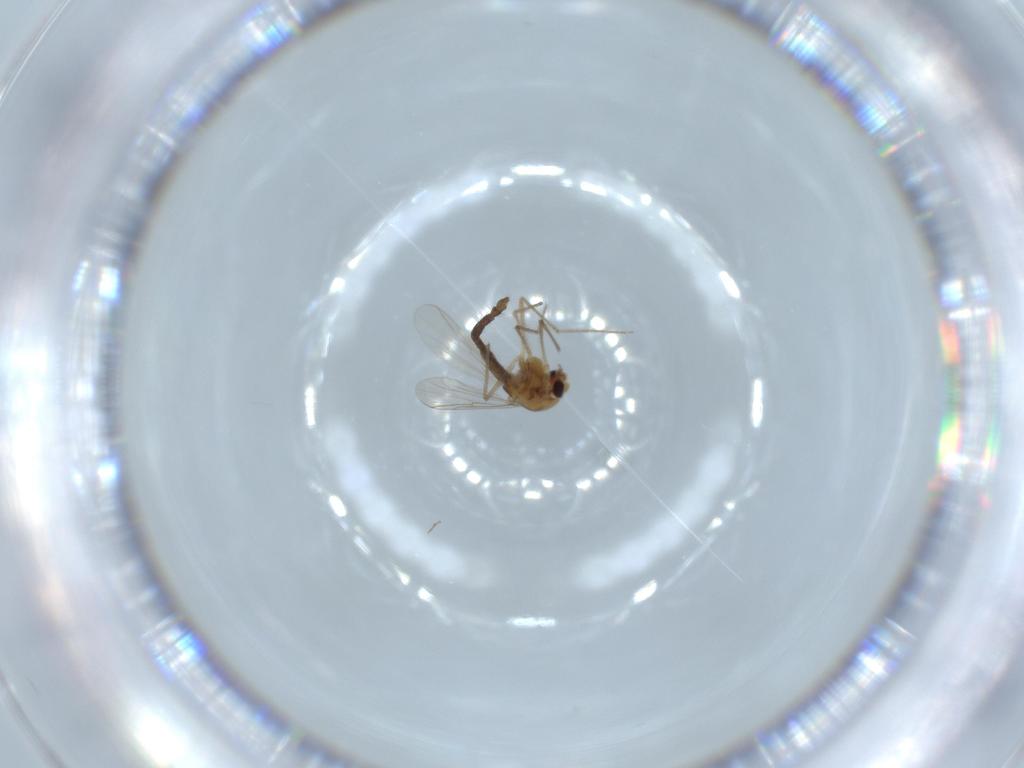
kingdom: Animalia
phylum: Arthropoda
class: Insecta
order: Diptera
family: Chironomidae
